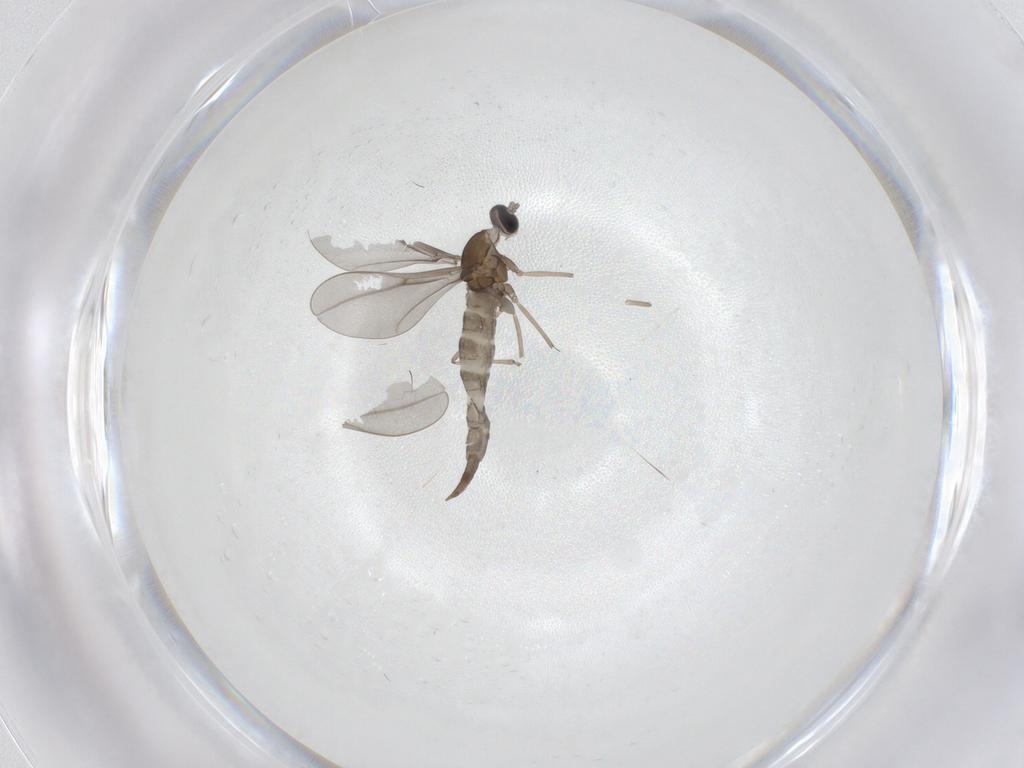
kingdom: Animalia
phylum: Arthropoda
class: Insecta
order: Diptera
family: Cecidomyiidae
